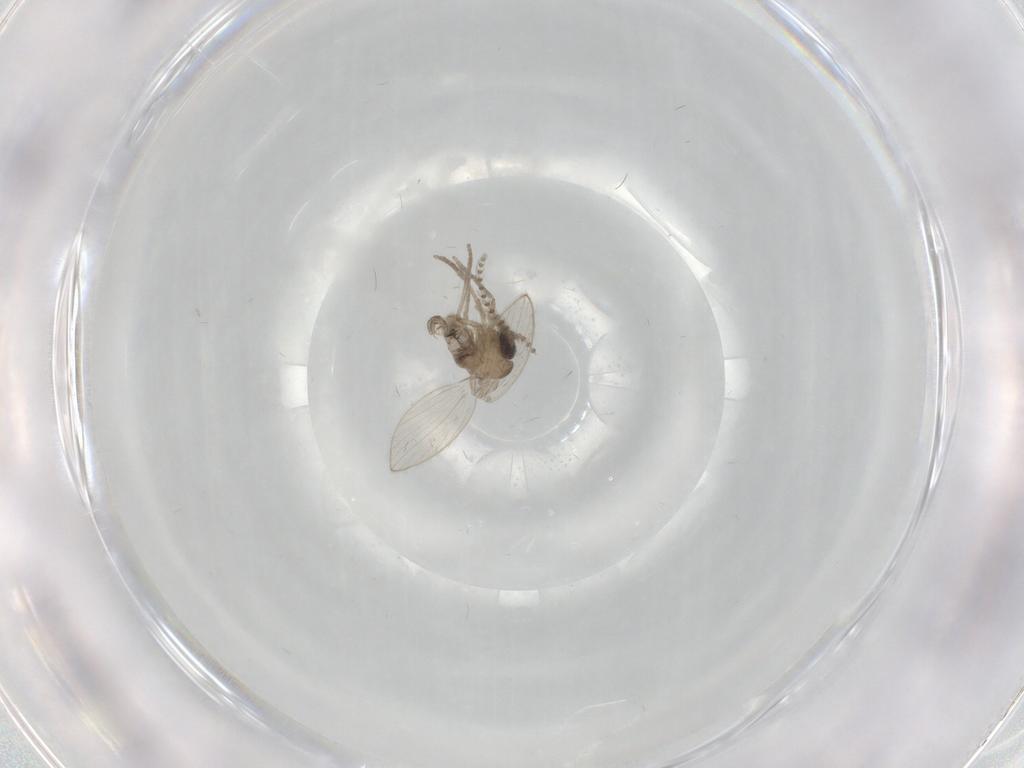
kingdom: Animalia
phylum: Arthropoda
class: Insecta
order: Diptera
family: Psychodidae
